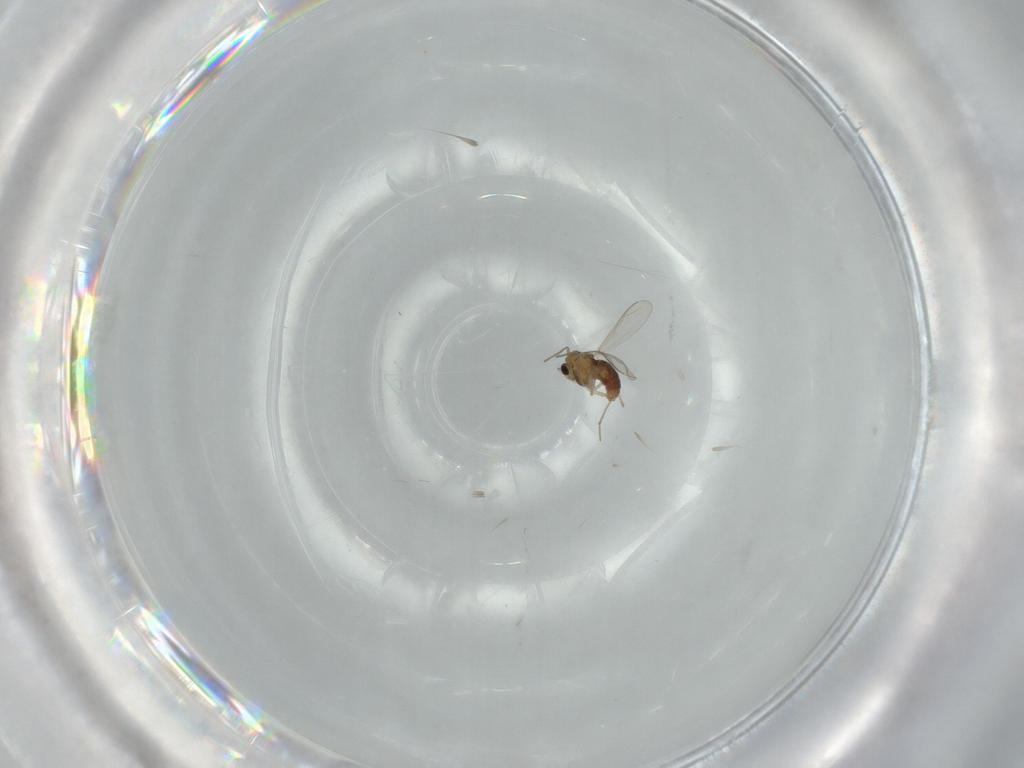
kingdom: Animalia
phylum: Arthropoda
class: Insecta
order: Diptera
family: Chironomidae
